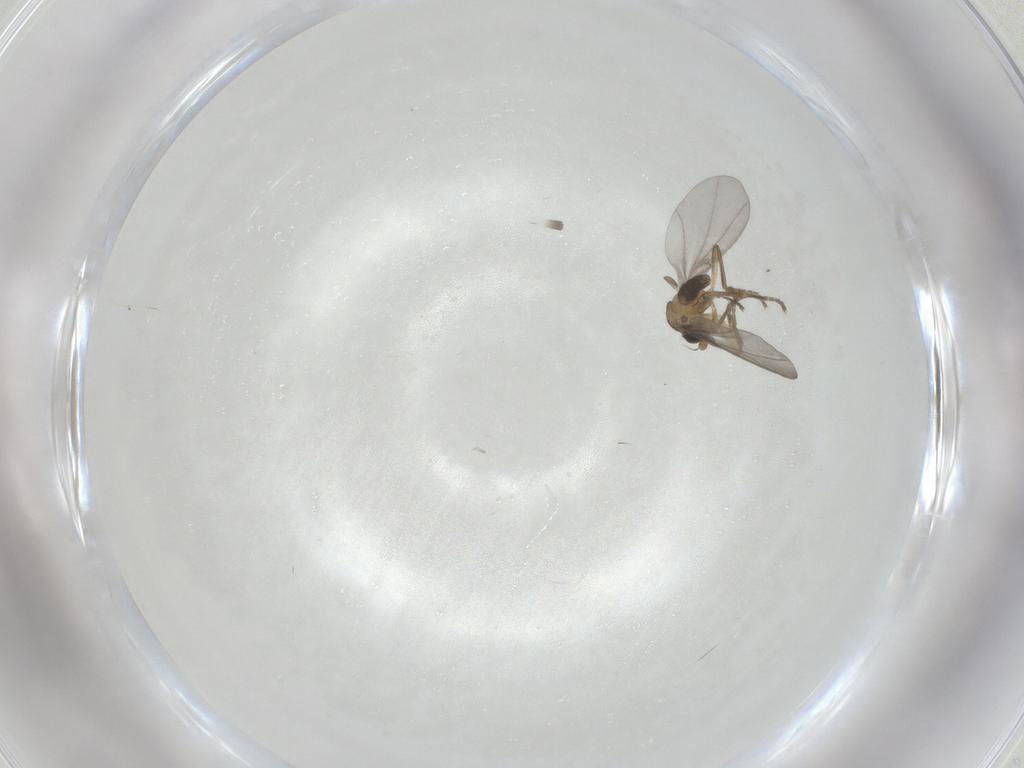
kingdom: Animalia
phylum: Arthropoda
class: Insecta
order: Diptera
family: Phoridae
